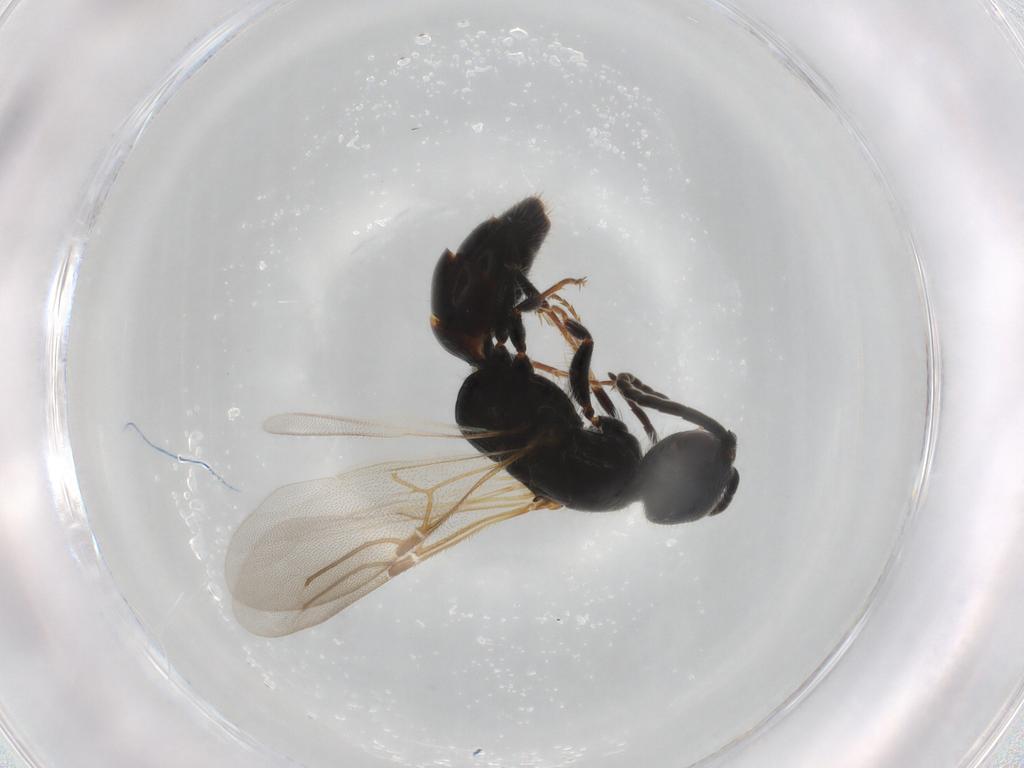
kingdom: Animalia
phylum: Arthropoda
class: Insecta
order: Hymenoptera
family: Bethylidae
